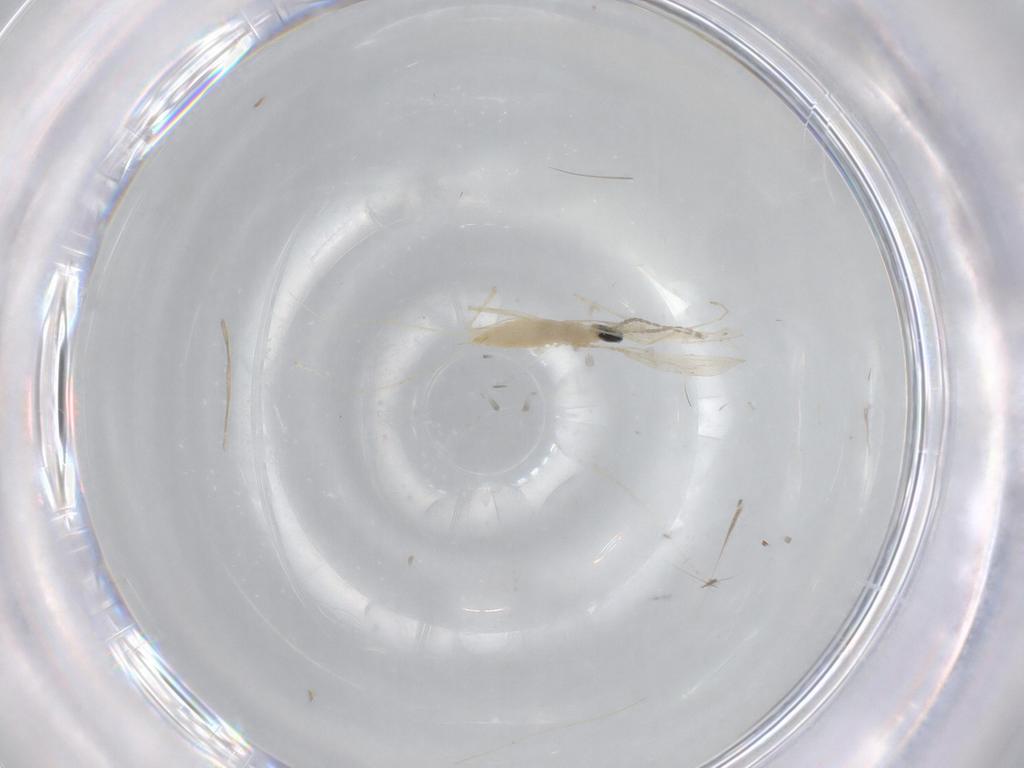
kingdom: Animalia
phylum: Arthropoda
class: Insecta
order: Diptera
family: Cecidomyiidae
